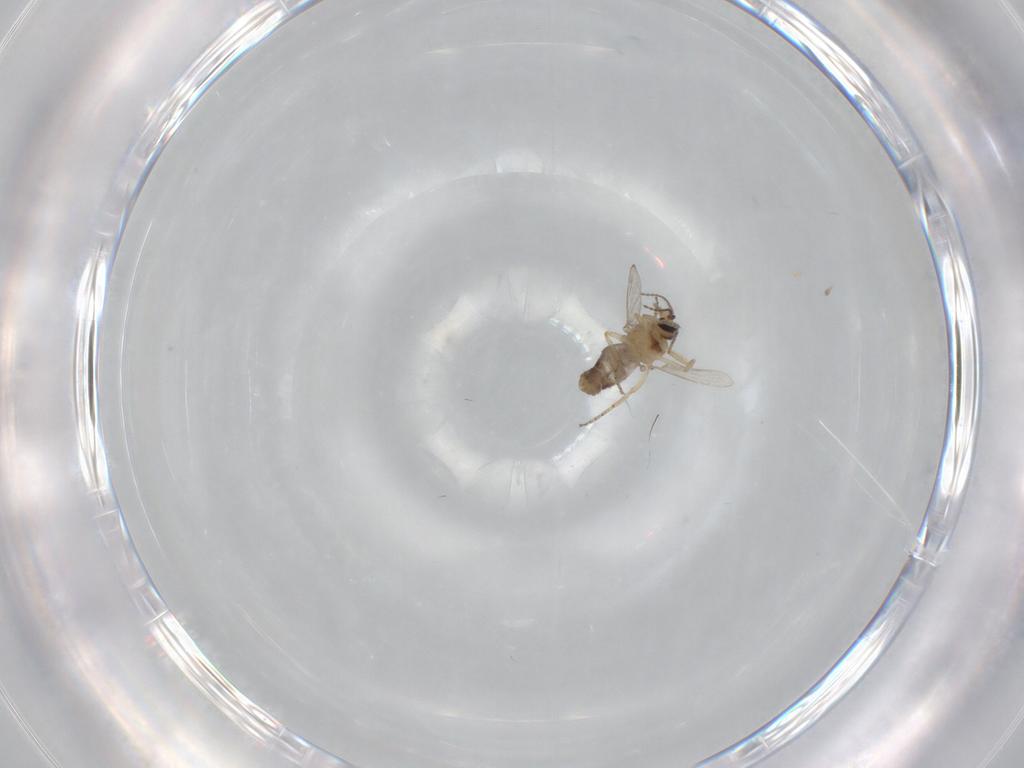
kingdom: Animalia
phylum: Arthropoda
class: Insecta
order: Diptera
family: Ceratopogonidae
